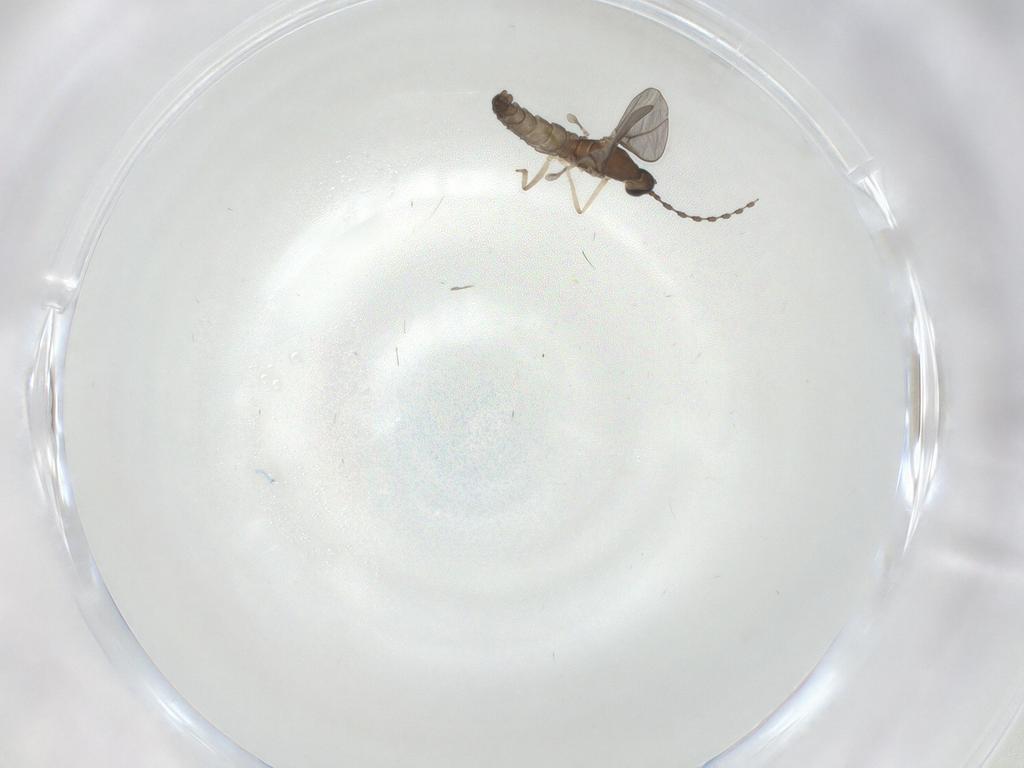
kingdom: Animalia
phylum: Arthropoda
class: Insecta
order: Diptera
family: Cecidomyiidae
